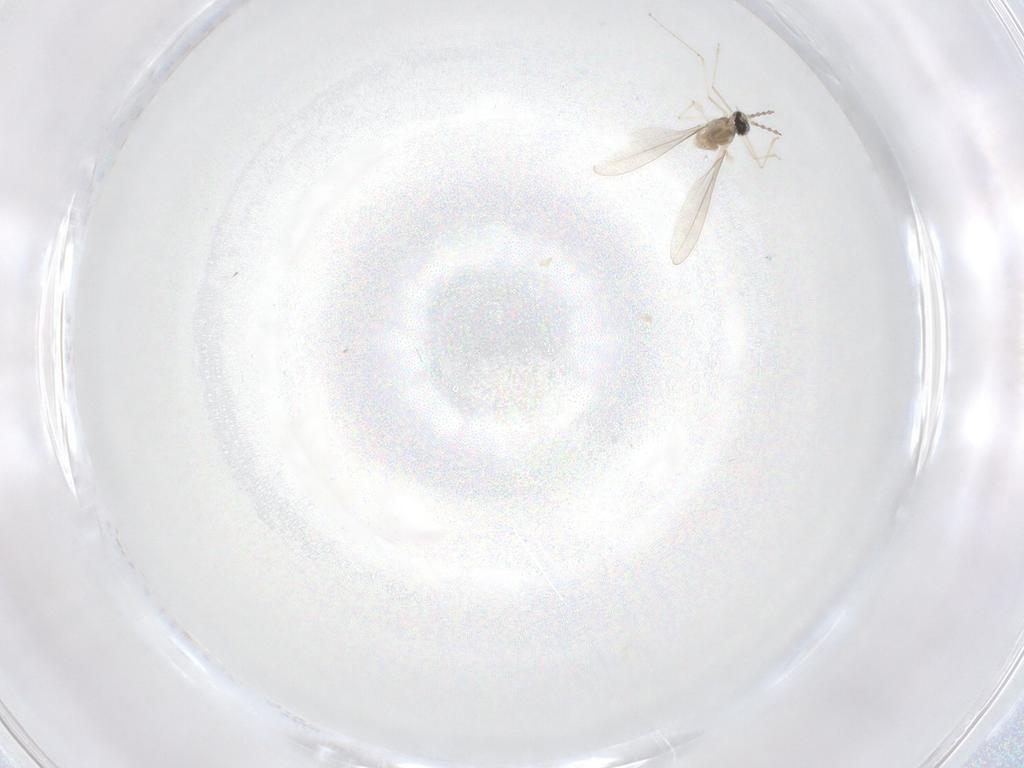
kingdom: Animalia
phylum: Arthropoda
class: Insecta
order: Diptera
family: Cecidomyiidae
